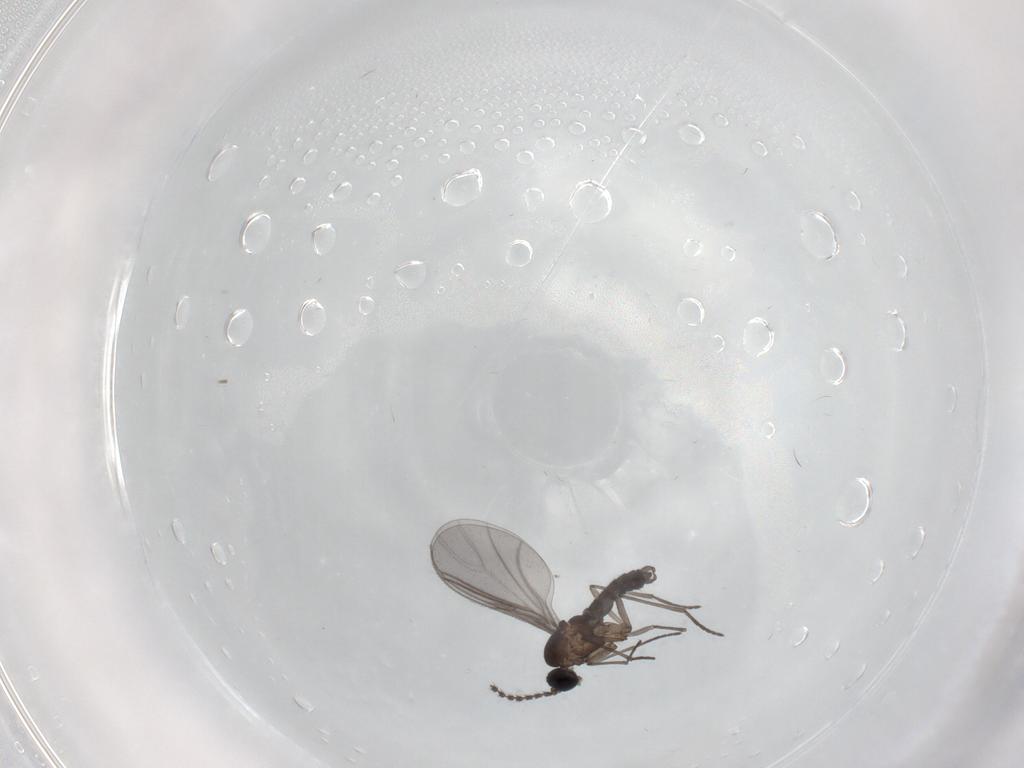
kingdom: Animalia
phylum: Arthropoda
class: Insecta
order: Diptera
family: Sciaridae
